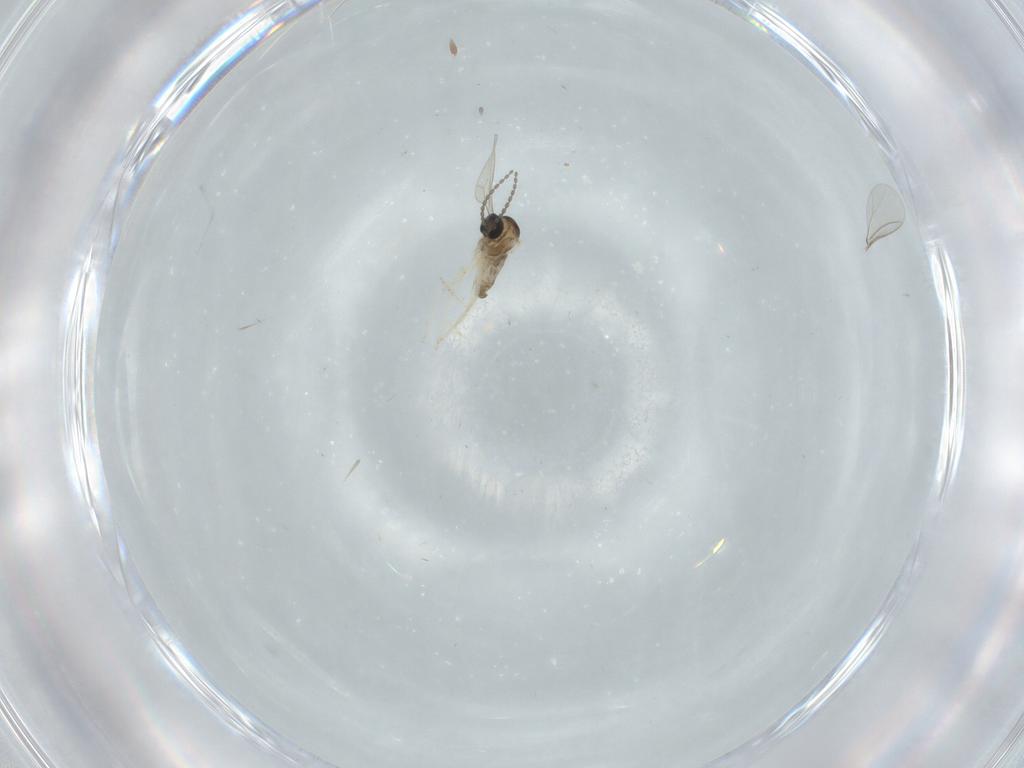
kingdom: Animalia
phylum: Arthropoda
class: Insecta
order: Diptera
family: Cecidomyiidae
